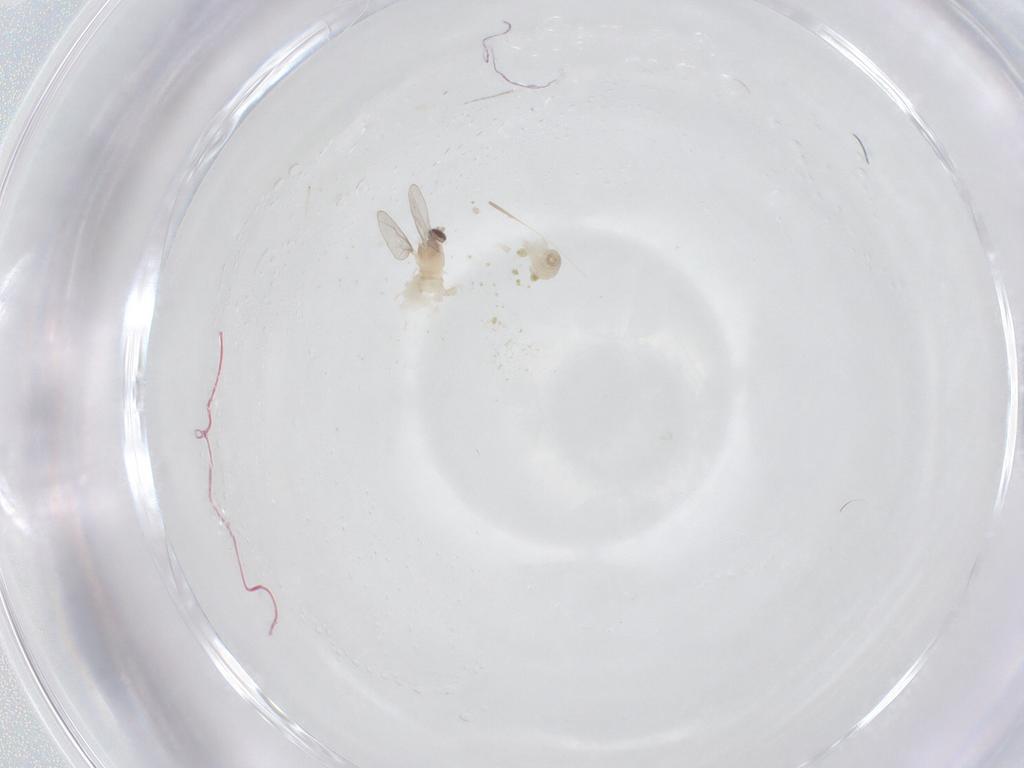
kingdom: Animalia
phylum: Arthropoda
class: Insecta
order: Diptera
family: Cecidomyiidae
